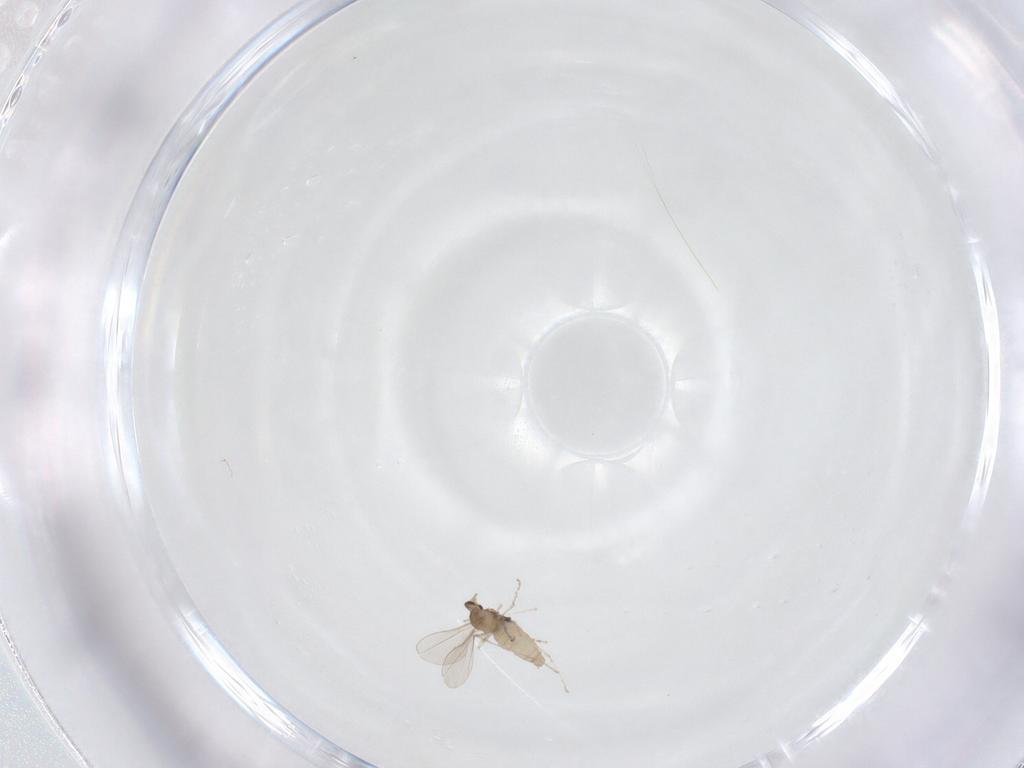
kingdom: Animalia
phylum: Arthropoda
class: Insecta
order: Diptera
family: Cecidomyiidae
